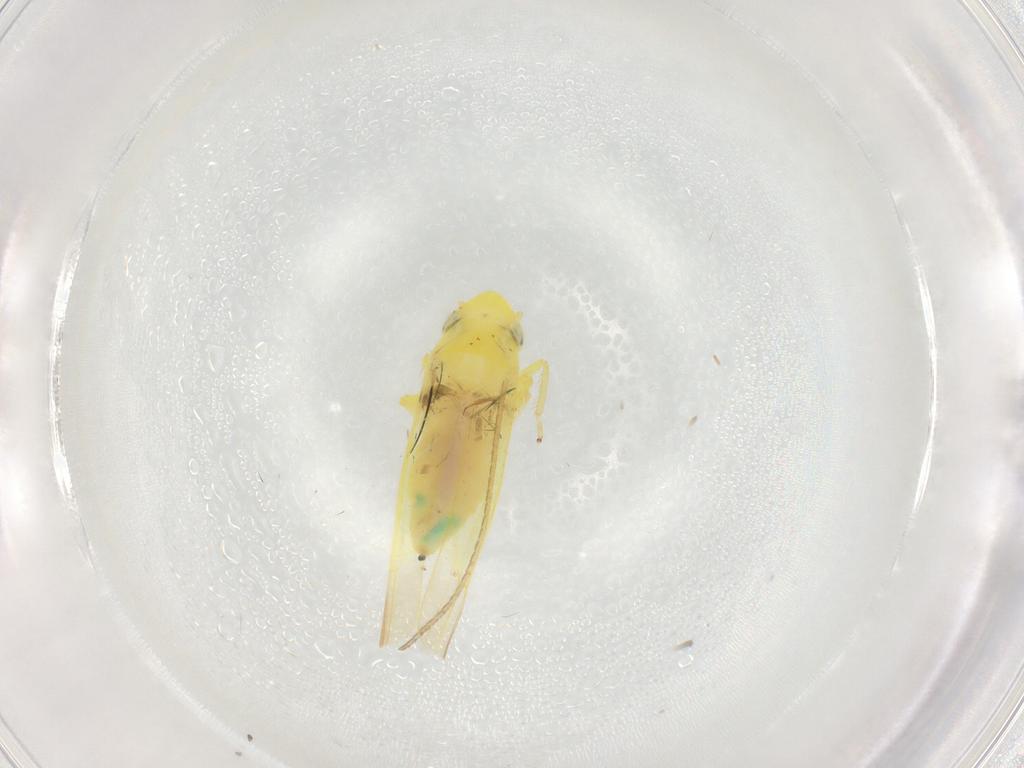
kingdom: Animalia
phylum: Arthropoda
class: Insecta
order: Hemiptera
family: Cicadellidae
